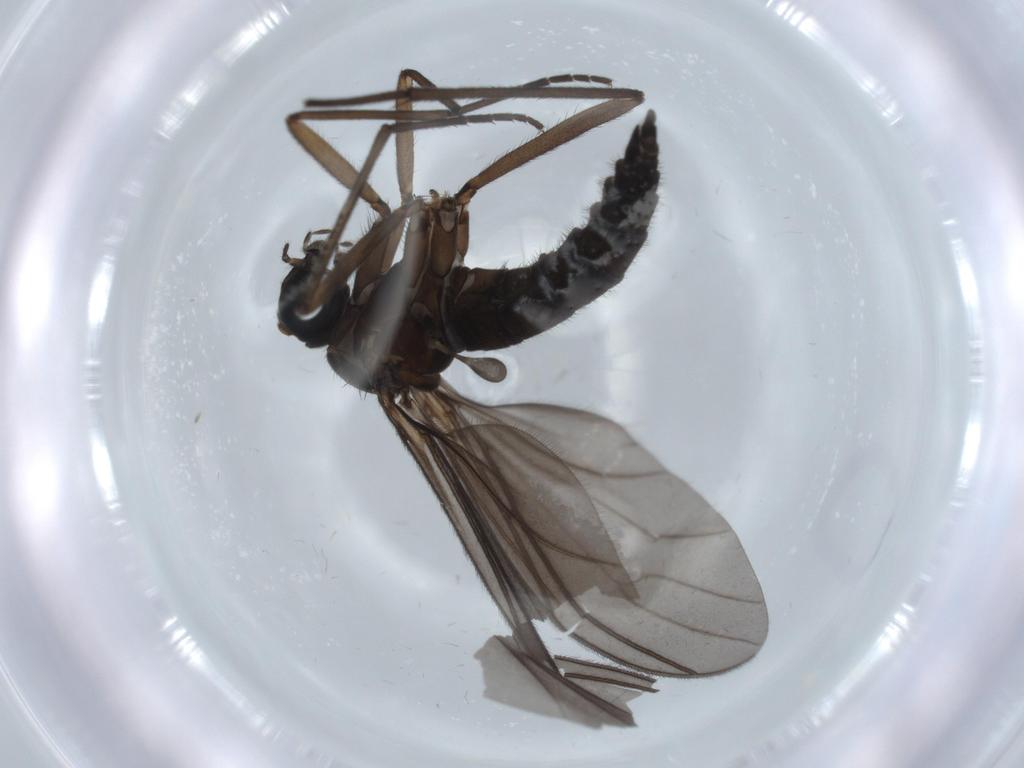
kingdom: Animalia
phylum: Arthropoda
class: Insecta
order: Diptera
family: Sciaridae
